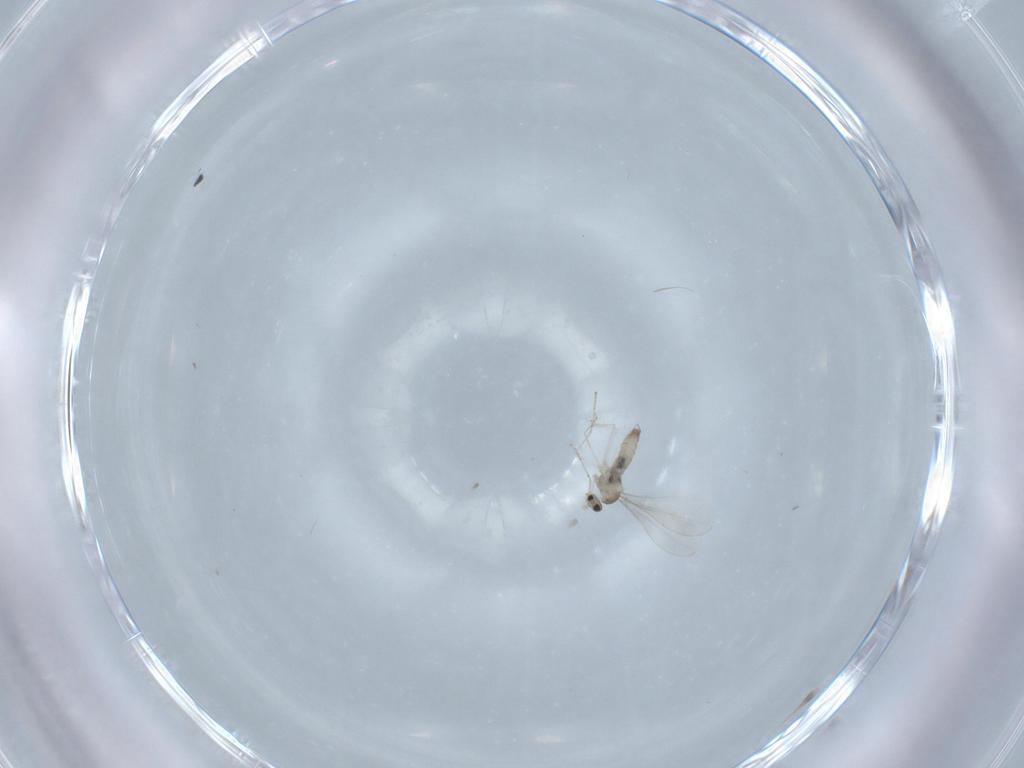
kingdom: Animalia
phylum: Arthropoda
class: Insecta
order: Diptera
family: Cecidomyiidae
